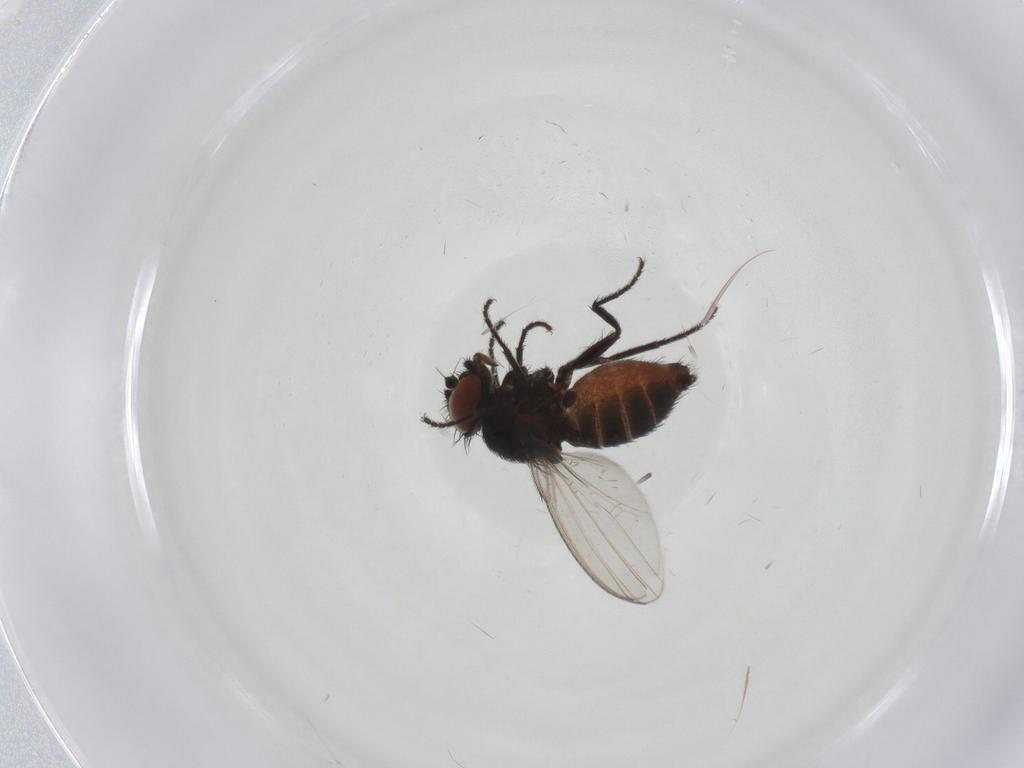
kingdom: Animalia
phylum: Arthropoda
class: Insecta
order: Diptera
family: Milichiidae
